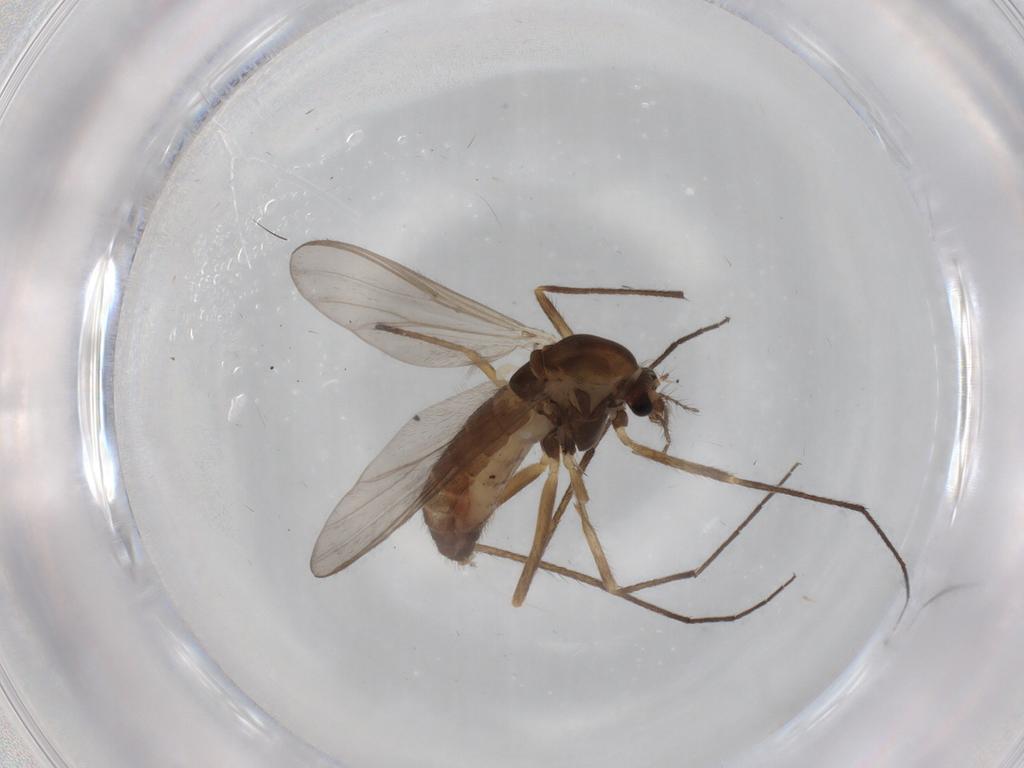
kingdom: Animalia
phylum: Arthropoda
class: Insecta
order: Diptera
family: Chironomidae
